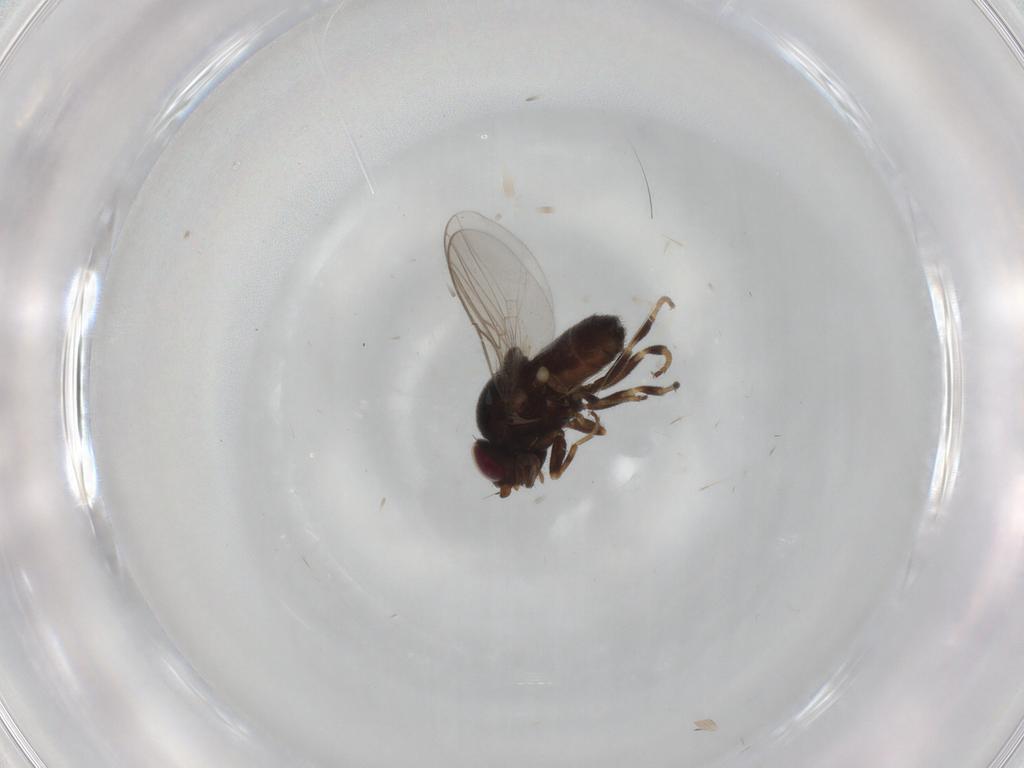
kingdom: Animalia
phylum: Arthropoda
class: Insecta
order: Diptera
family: Chloropidae
